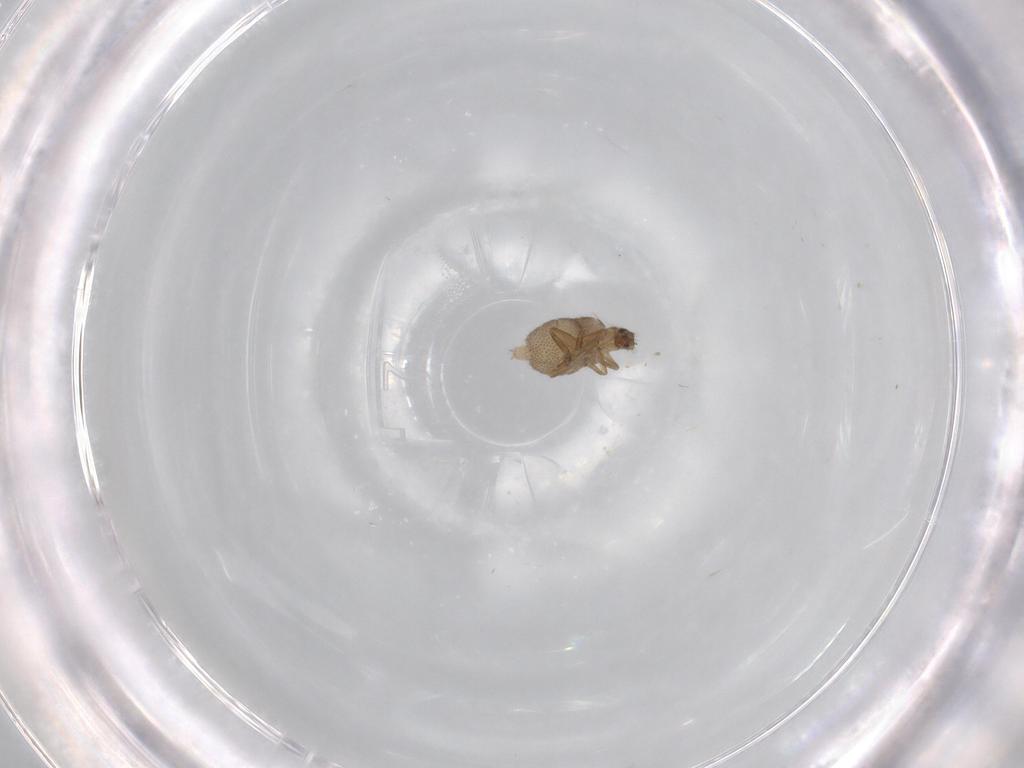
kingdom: Animalia
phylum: Arthropoda
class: Insecta
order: Diptera
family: Phoridae
